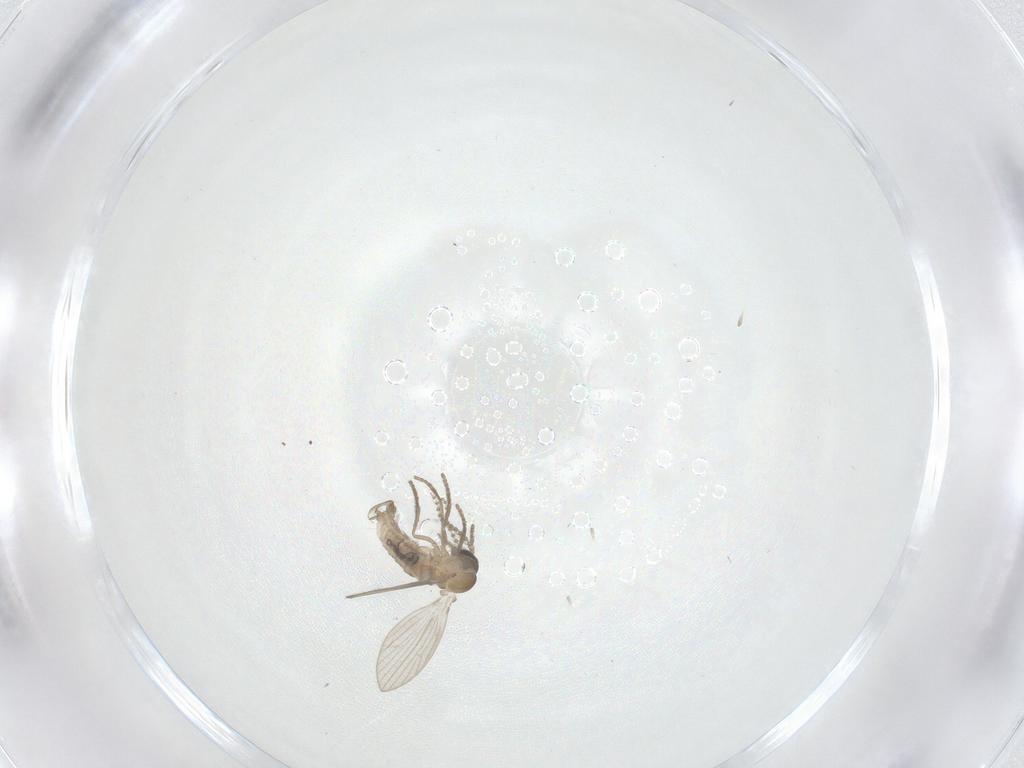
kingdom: Animalia
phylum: Arthropoda
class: Insecta
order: Diptera
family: Psychodidae
